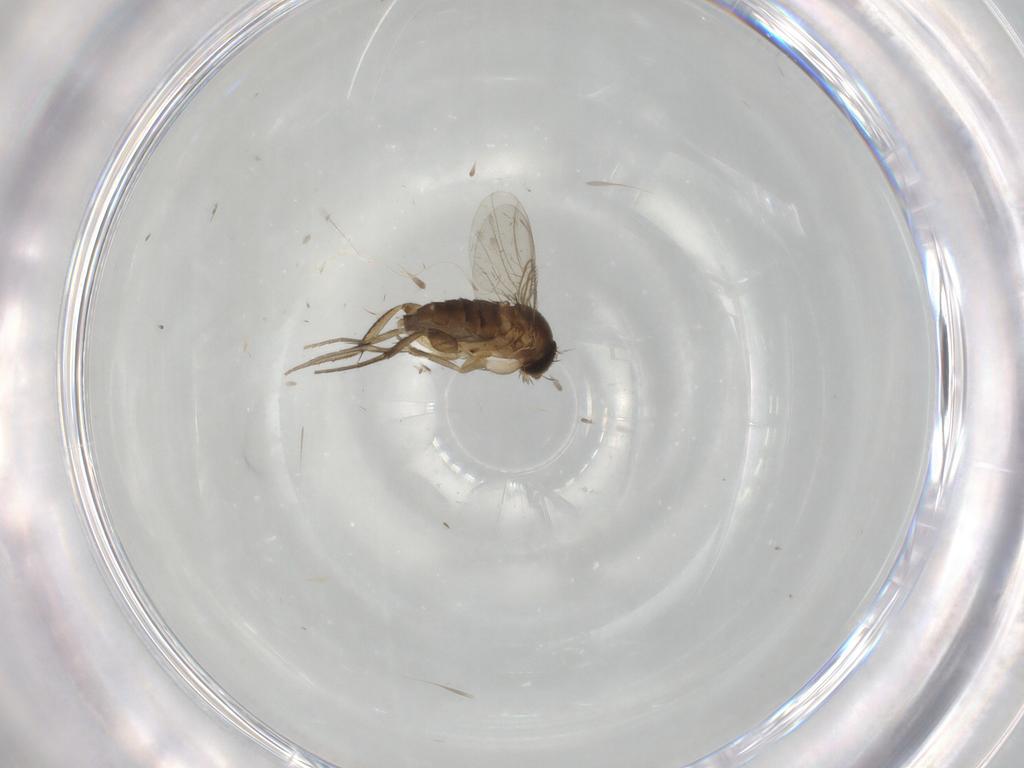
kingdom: Animalia
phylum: Arthropoda
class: Insecta
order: Diptera
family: Phoridae
